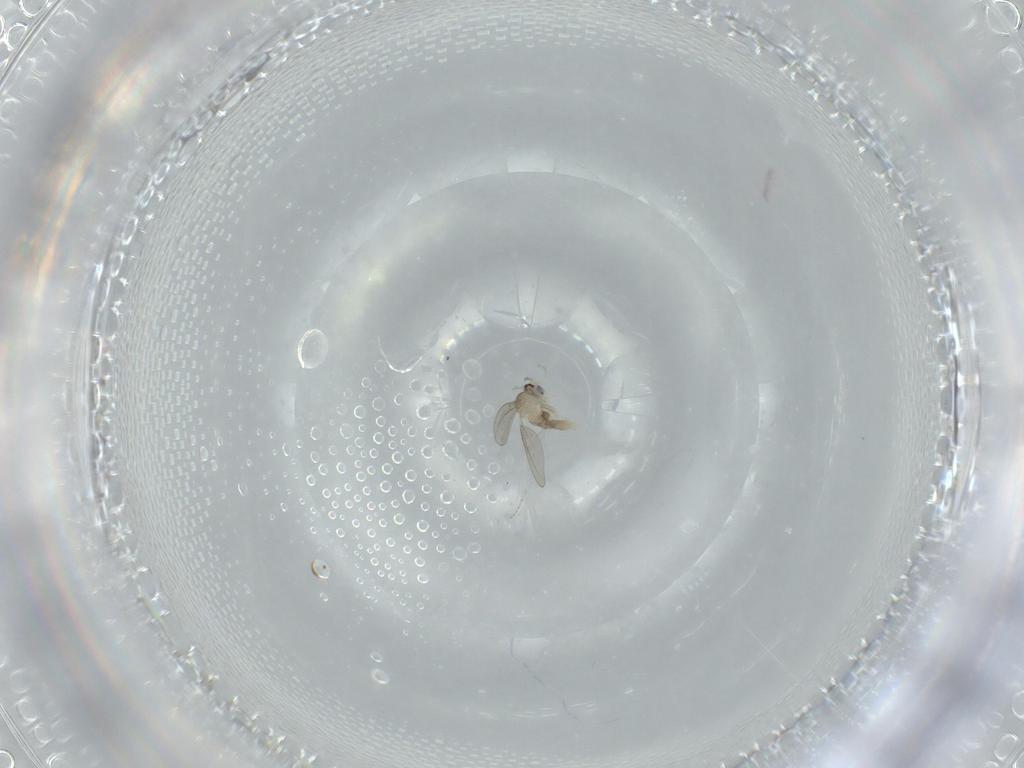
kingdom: Animalia
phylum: Arthropoda
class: Insecta
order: Diptera
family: Cecidomyiidae
